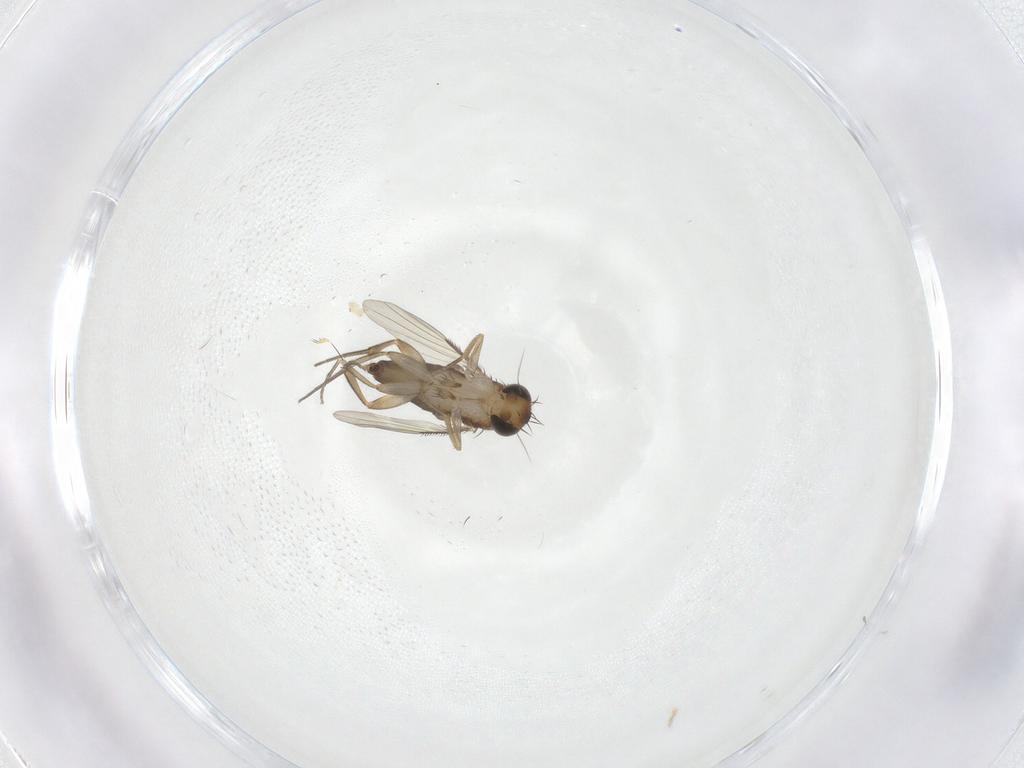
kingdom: Animalia
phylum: Arthropoda
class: Insecta
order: Diptera
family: Phoridae
